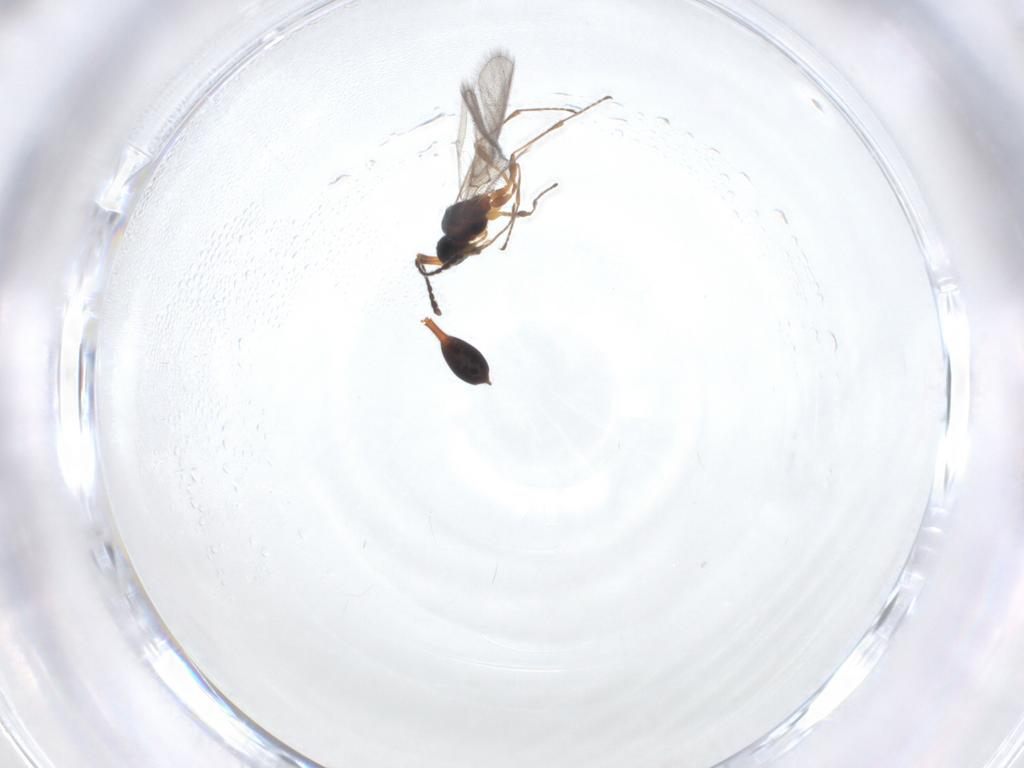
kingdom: Animalia
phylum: Arthropoda
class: Insecta
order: Hymenoptera
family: Diapriidae
